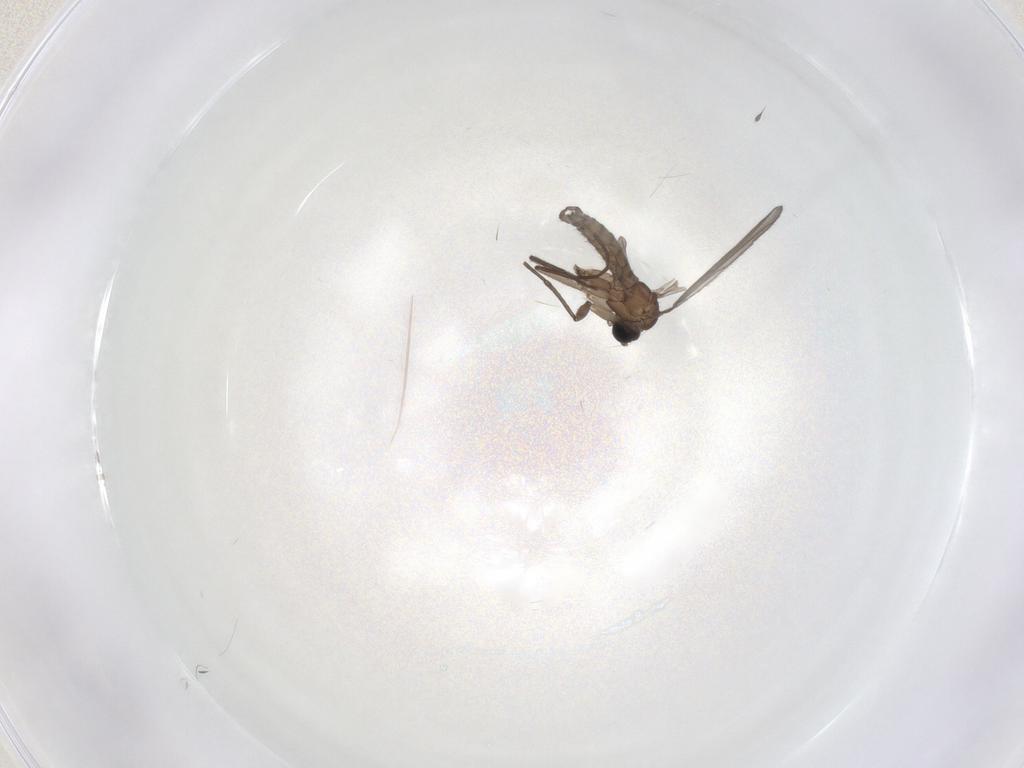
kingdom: Animalia
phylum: Arthropoda
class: Insecta
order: Diptera
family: Sciaridae
